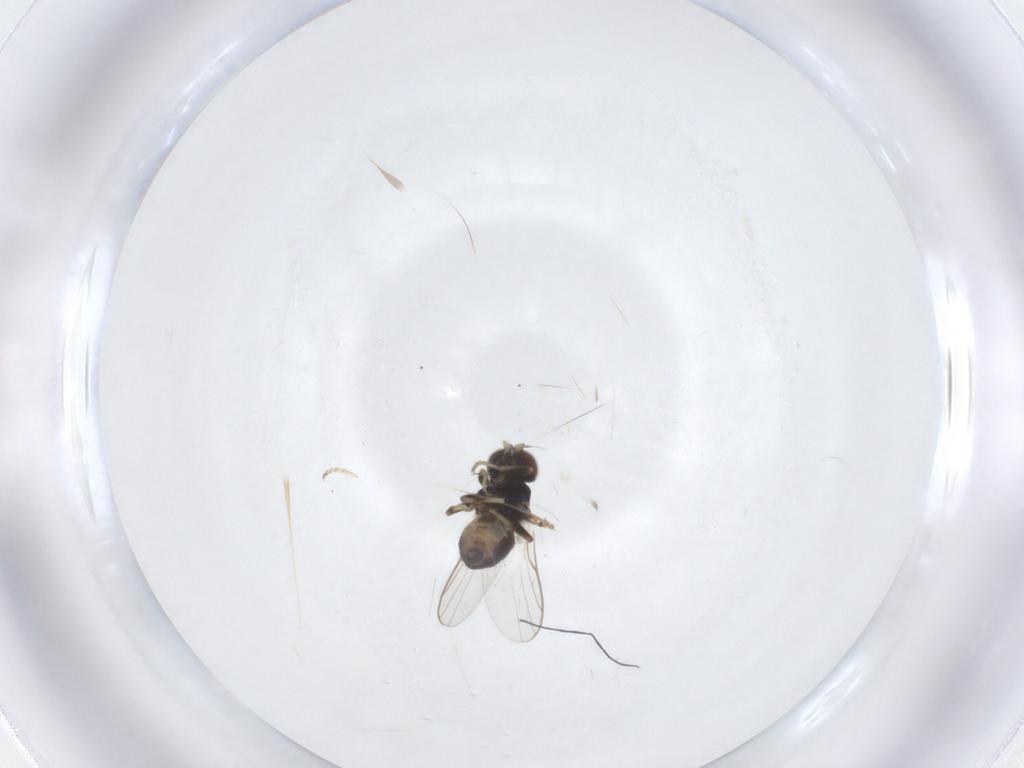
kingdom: Animalia
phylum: Arthropoda
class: Insecta
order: Diptera
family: Chloropidae
